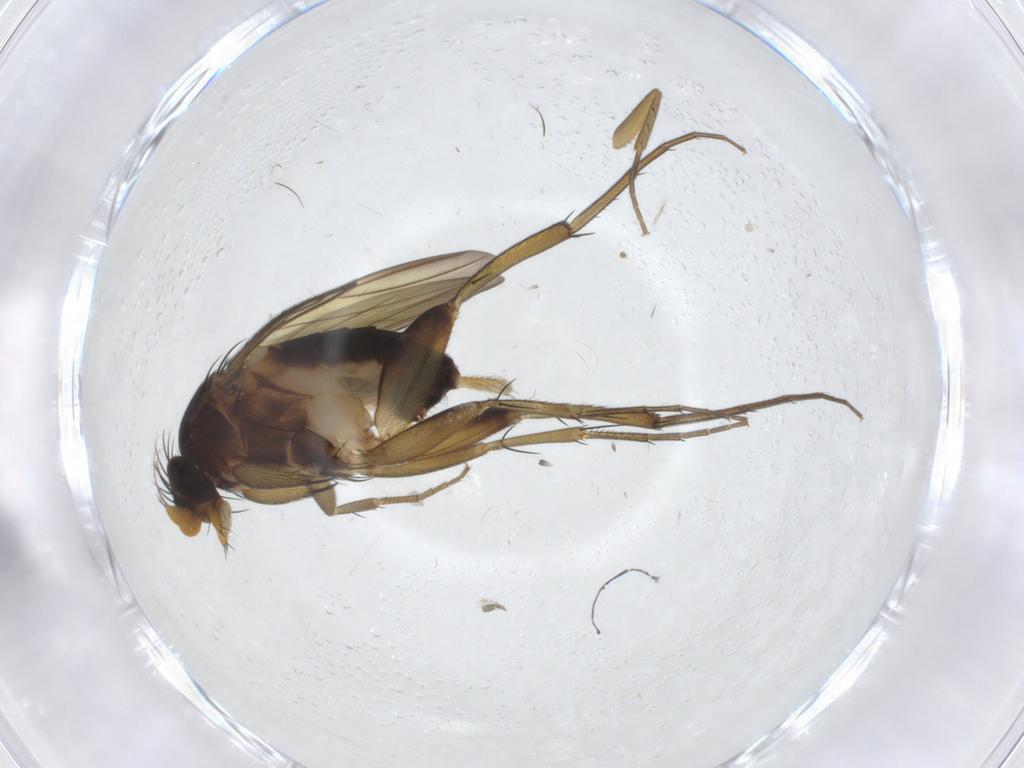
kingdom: Animalia
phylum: Arthropoda
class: Insecta
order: Diptera
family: Phoridae
